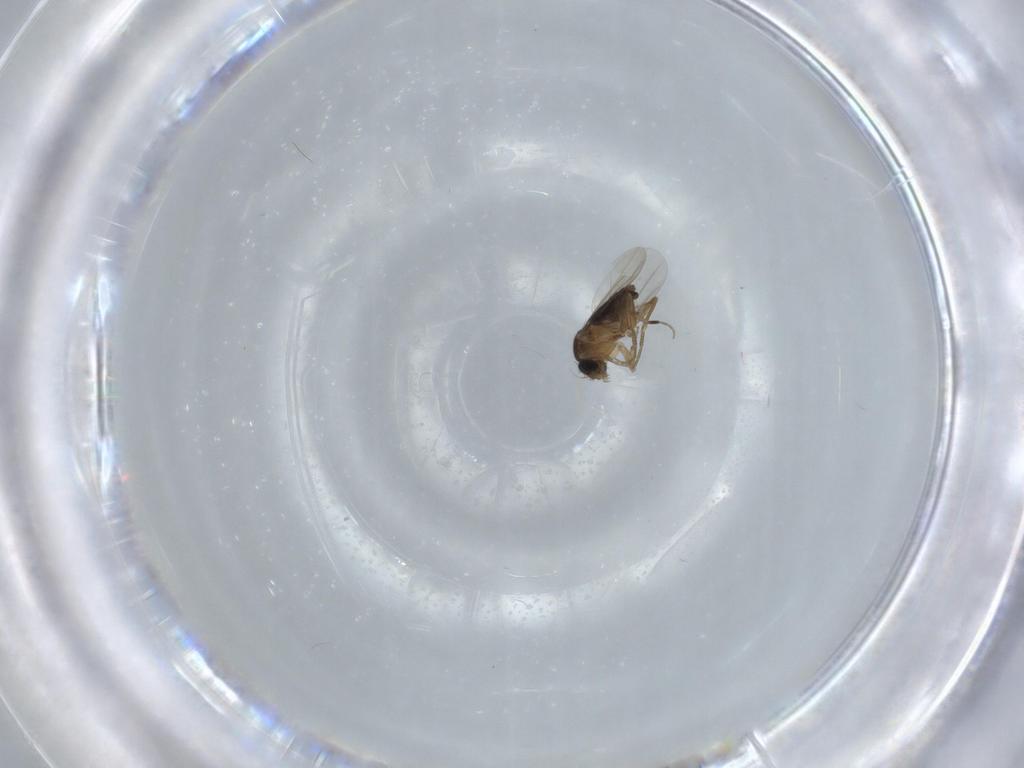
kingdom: Animalia
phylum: Arthropoda
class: Insecta
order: Diptera
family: Phoridae
